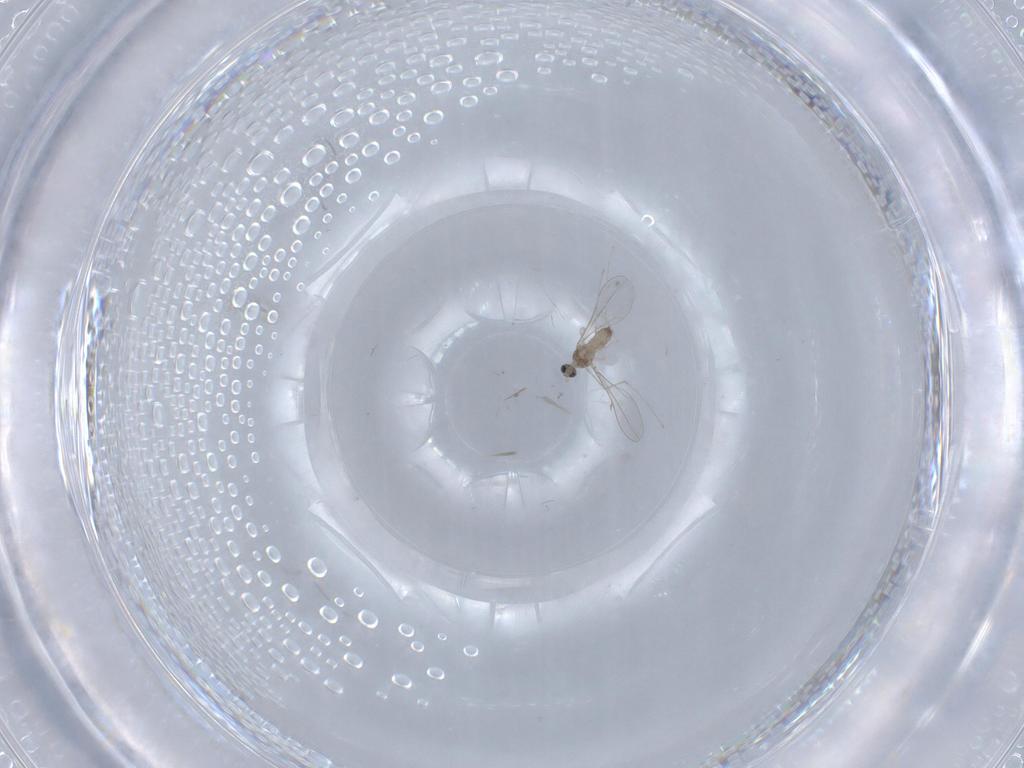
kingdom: Animalia
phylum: Arthropoda
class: Insecta
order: Diptera
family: Cecidomyiidae
